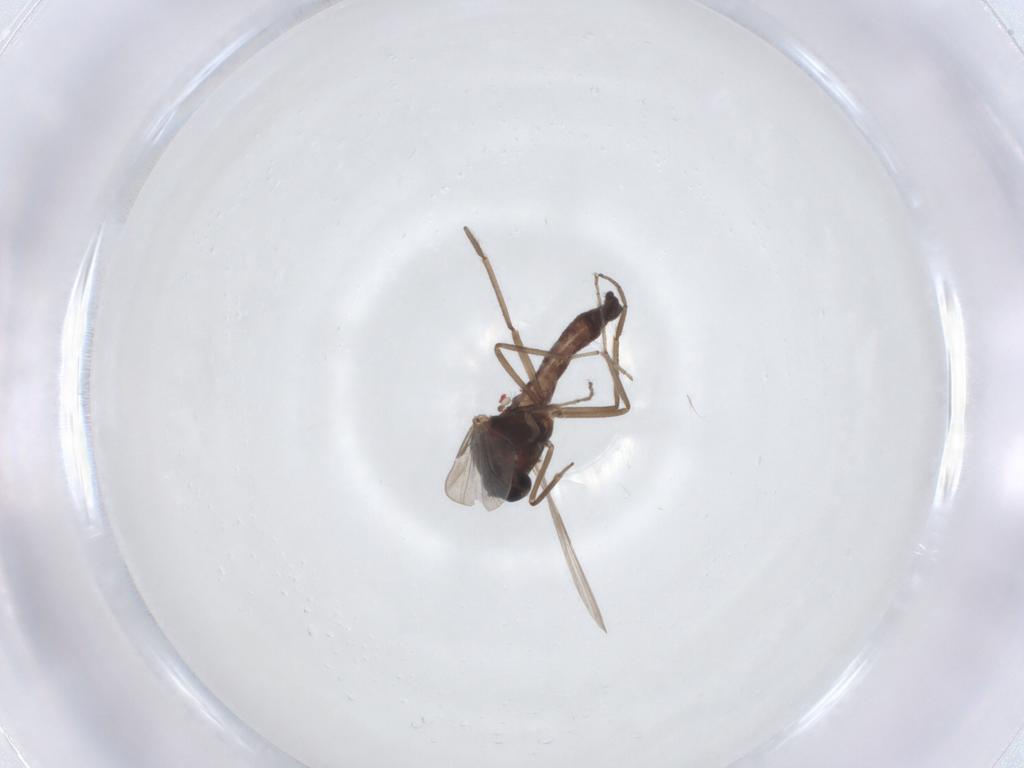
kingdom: Animalia
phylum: Arthropoda
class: Insecta
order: Diptera
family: Ceratopogonidae
